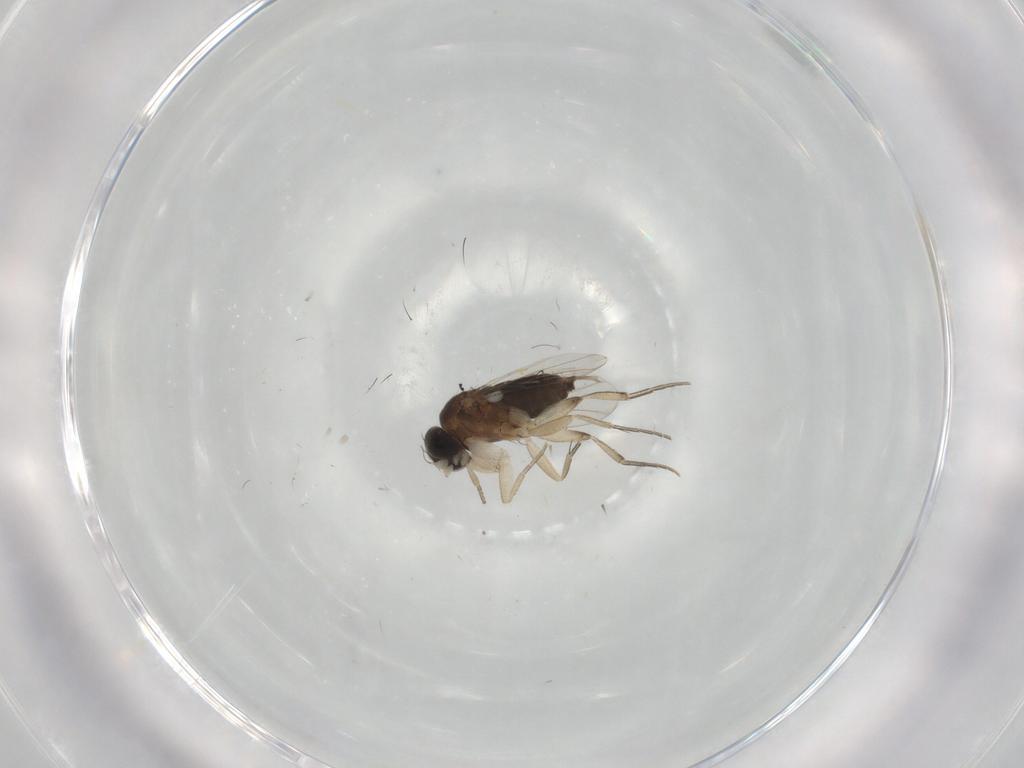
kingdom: Animalia
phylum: Arthropoda
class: Insecta
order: Diptera
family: Phoridae
